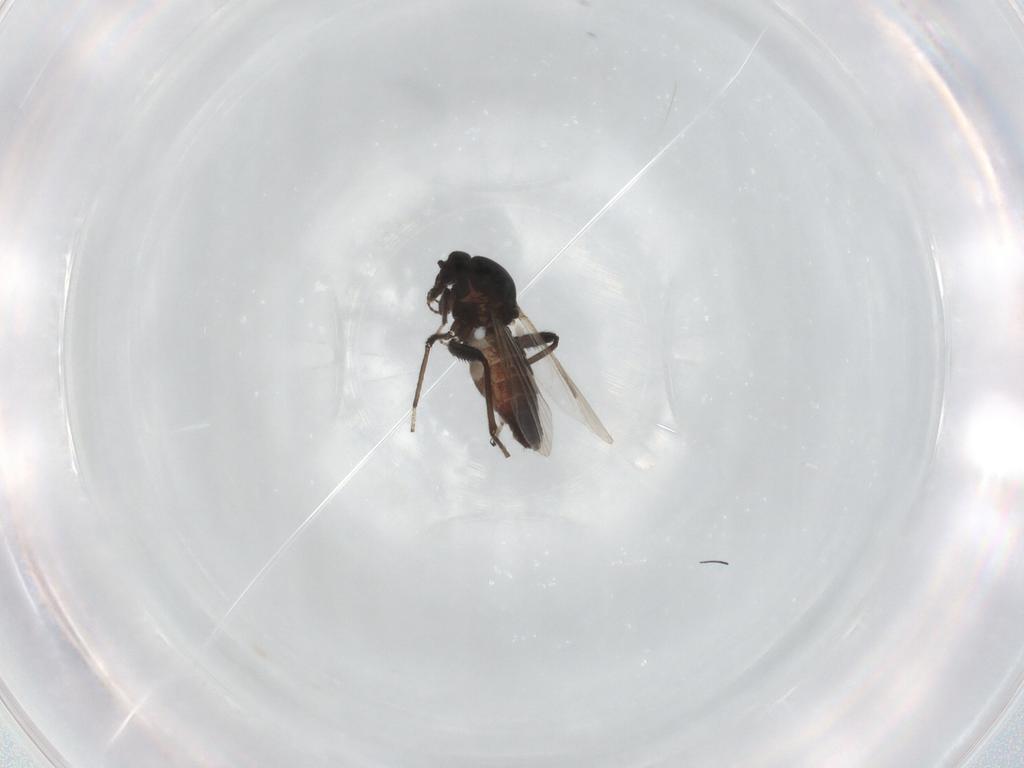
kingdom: Animalia
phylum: Arthropoda
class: Insecta
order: Diptera
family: Ceratopogonidae
